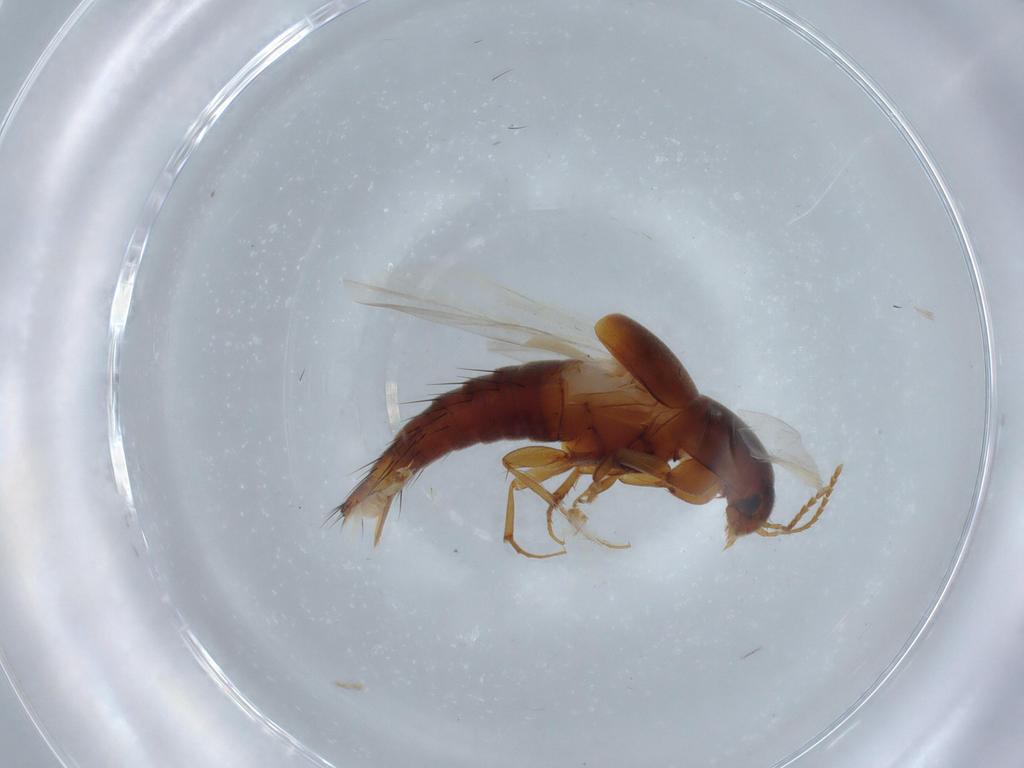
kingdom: Animalia
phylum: Arthropoda
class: Insecta
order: Coleoptera
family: Staphylinidae
